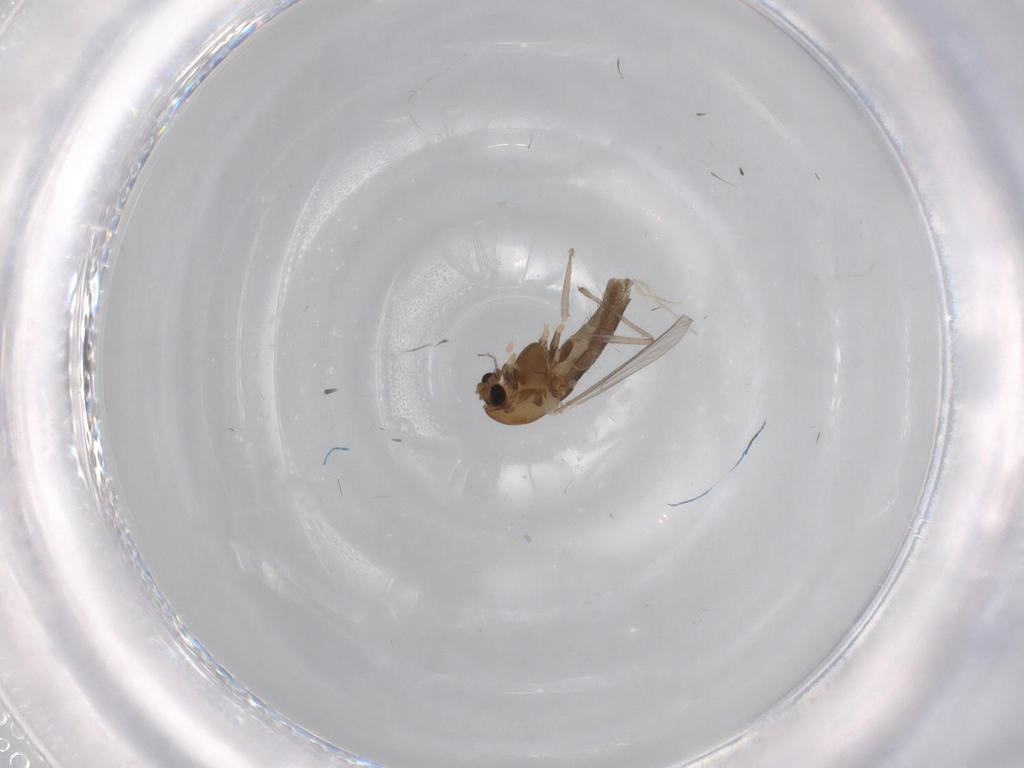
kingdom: Animalia
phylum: Arthropoda
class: Insecta
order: Diptera
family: Chironomidae
